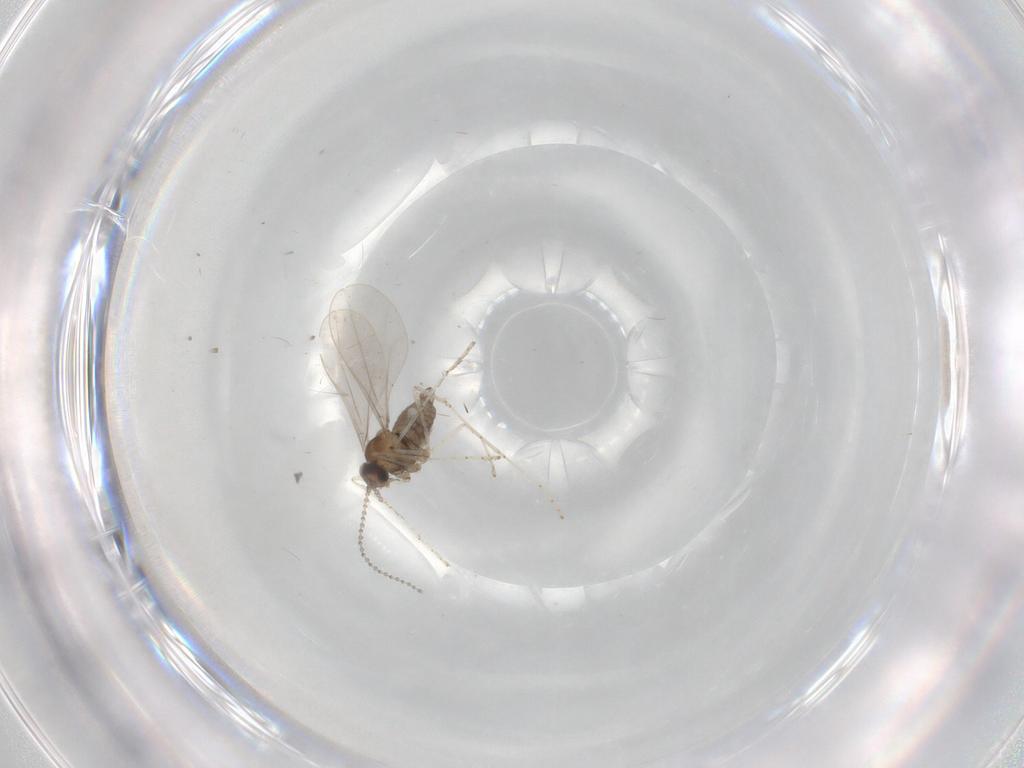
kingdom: Animalia
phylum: Arthropoda
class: Insecta
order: Diptera
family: Cecidomyiidae
